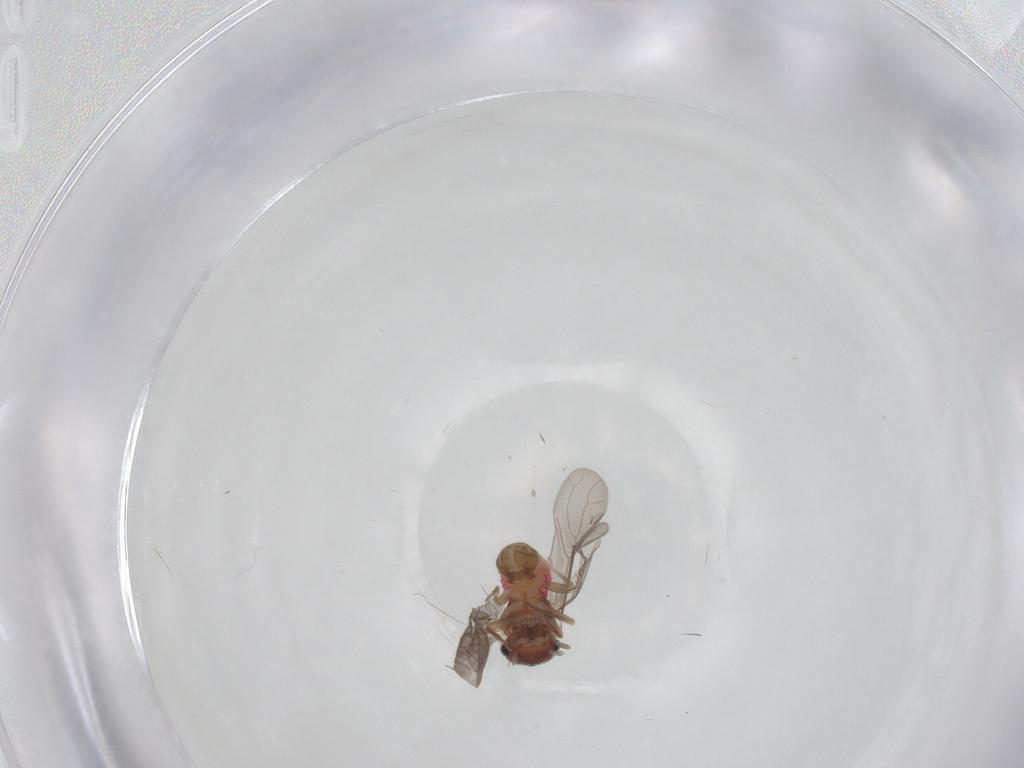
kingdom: Animalia
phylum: Arthropoda
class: Insecta
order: Psocodea
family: Asiopsocidae
